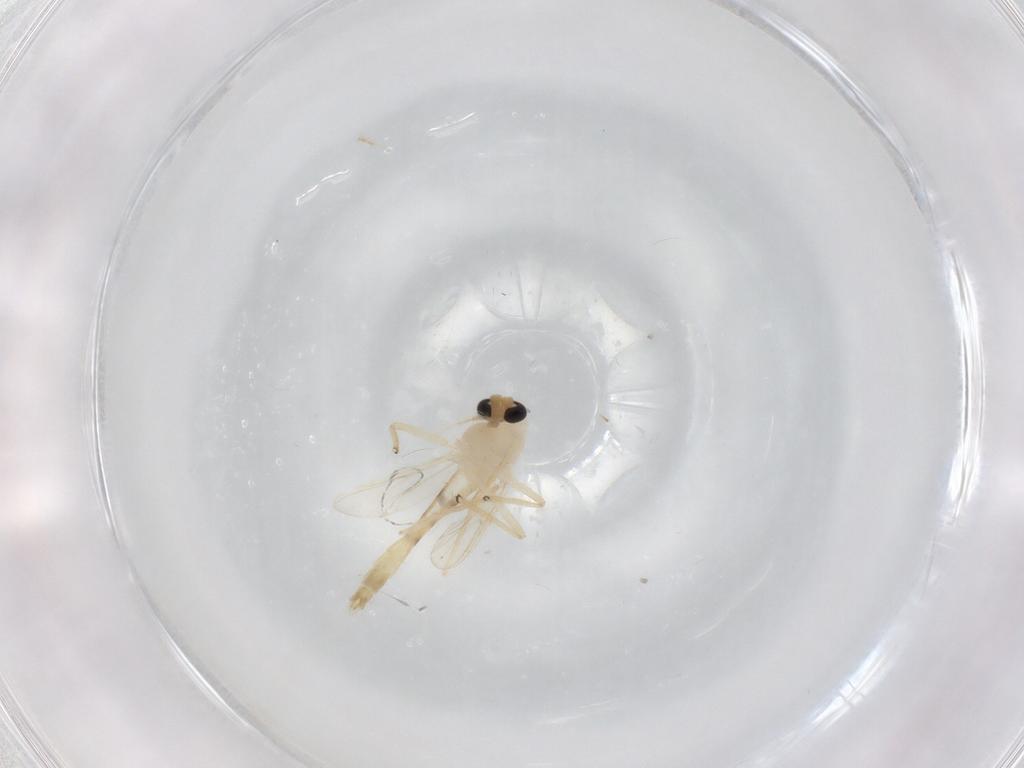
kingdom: Animalia
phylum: Arthropoda
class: Insecta
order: Diptera
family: Chironomidae
